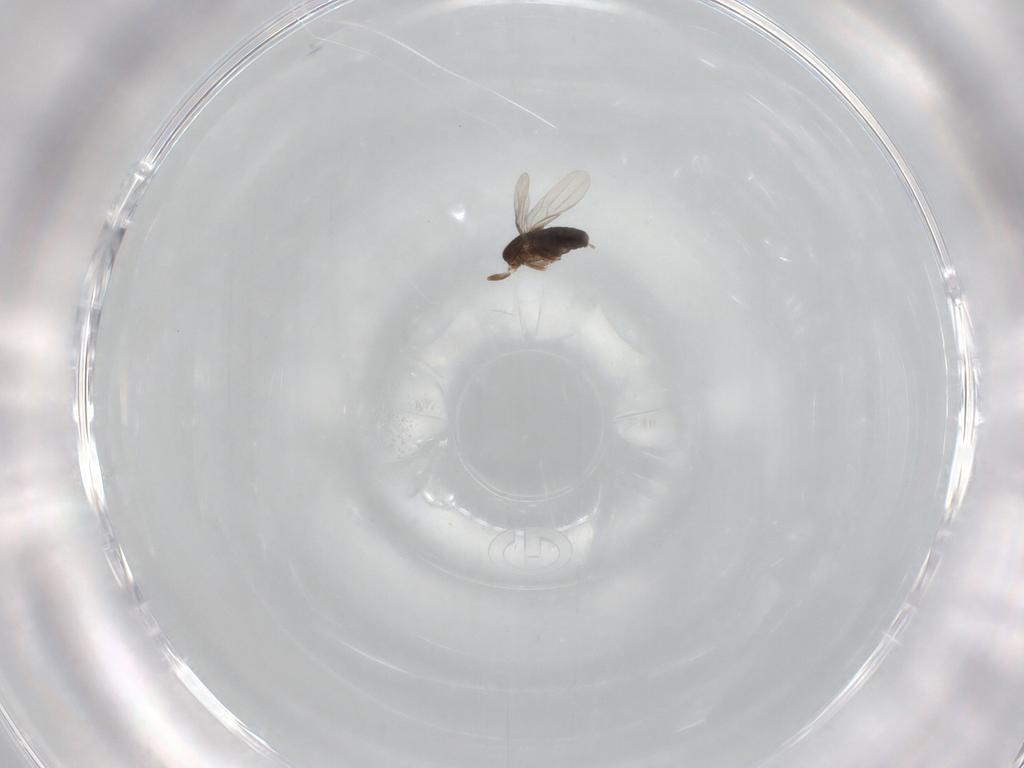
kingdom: Animalia
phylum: Arthropoda
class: Insecta
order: Diptera
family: Phoridae
